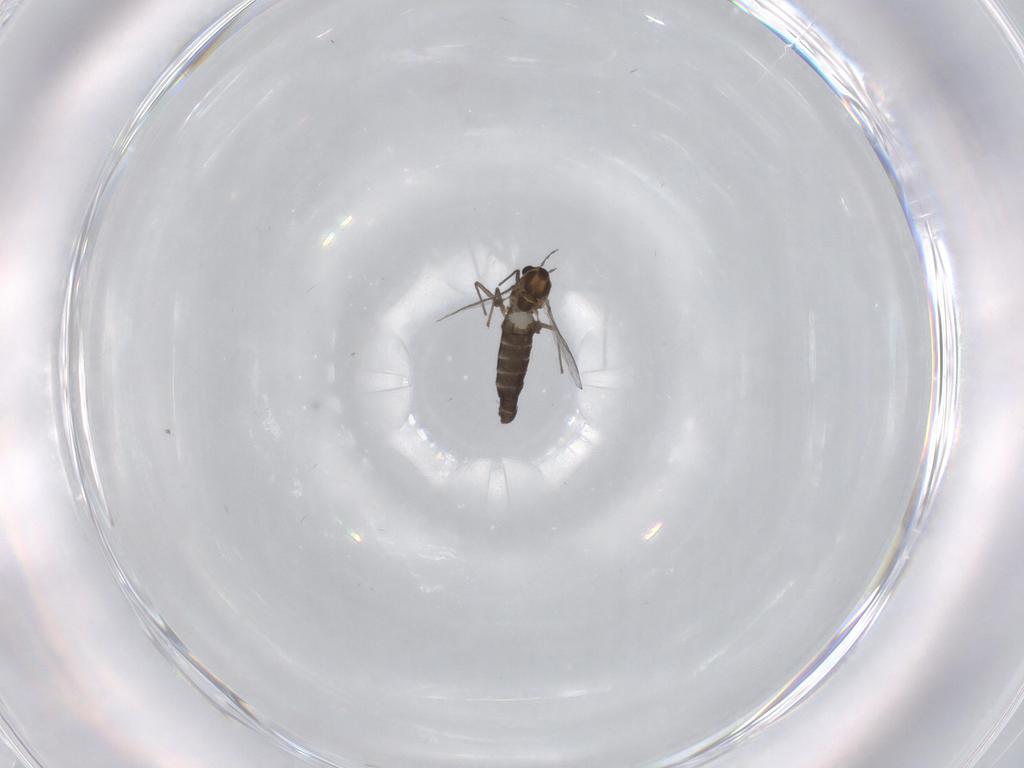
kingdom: Animalia
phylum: Arthropoda
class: Insecta
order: Diptera
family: Chironomidae
